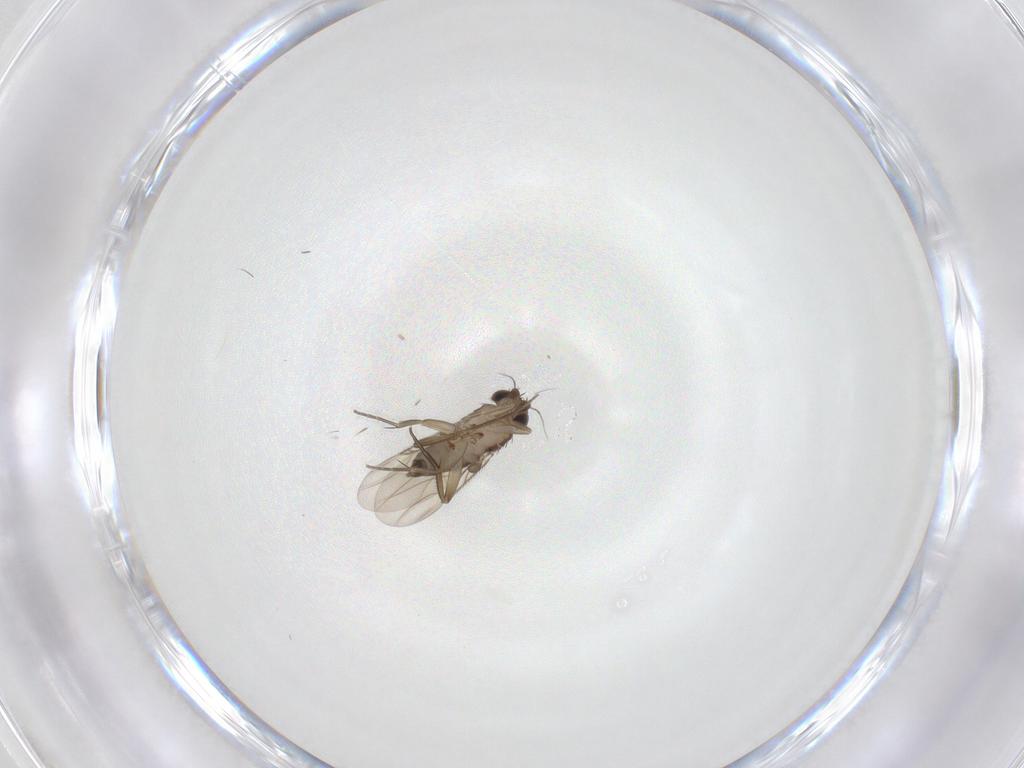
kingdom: Animalia
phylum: Arthropoda
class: Insecta
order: Diptera
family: Phoridae
